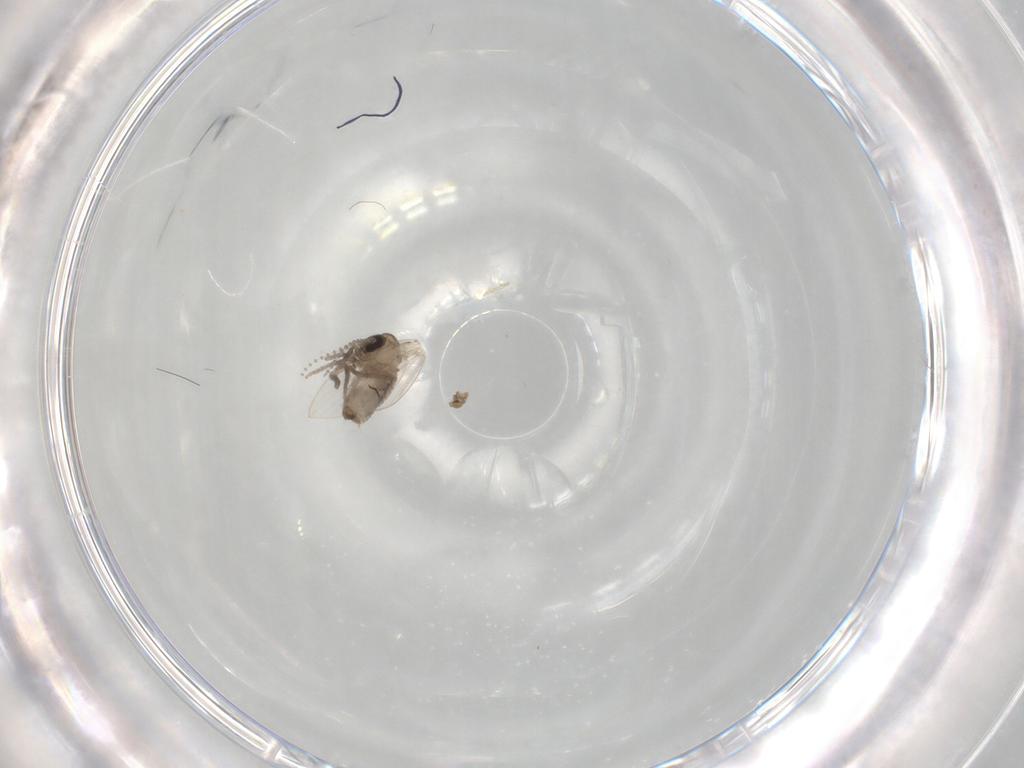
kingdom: Animalia
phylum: Arthropoda
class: Insecta
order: Diptera
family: Psychodidae
